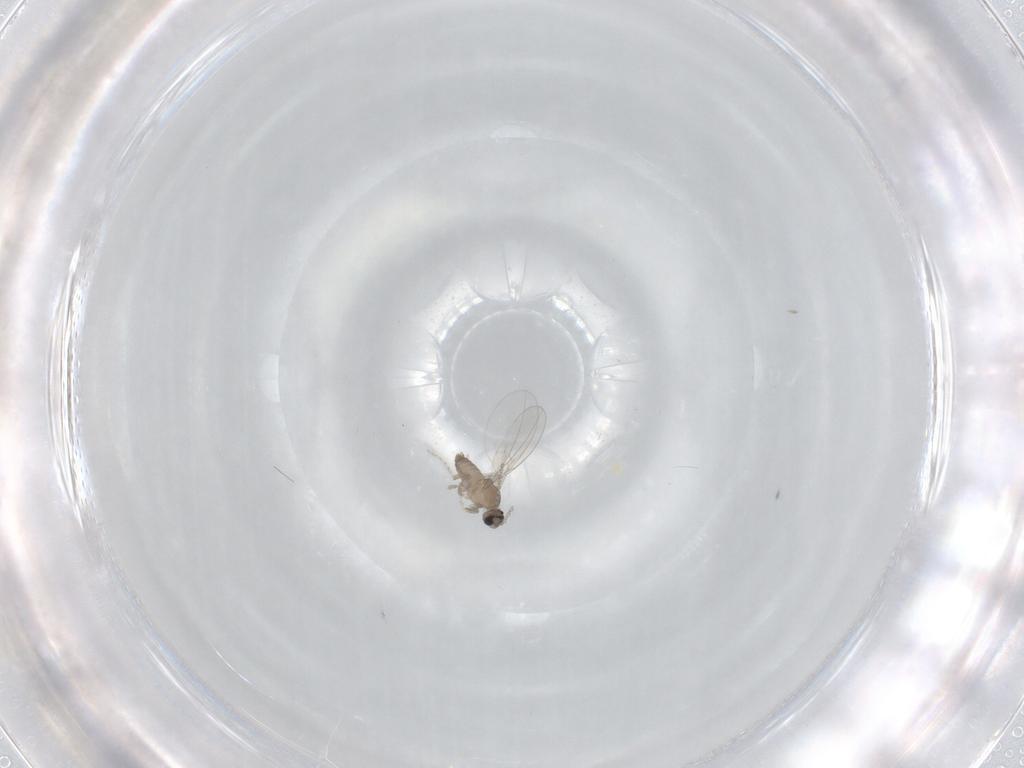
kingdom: Animalia
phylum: Arthropoda
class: Insecta
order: Diptera
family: Cecidomyiidae
